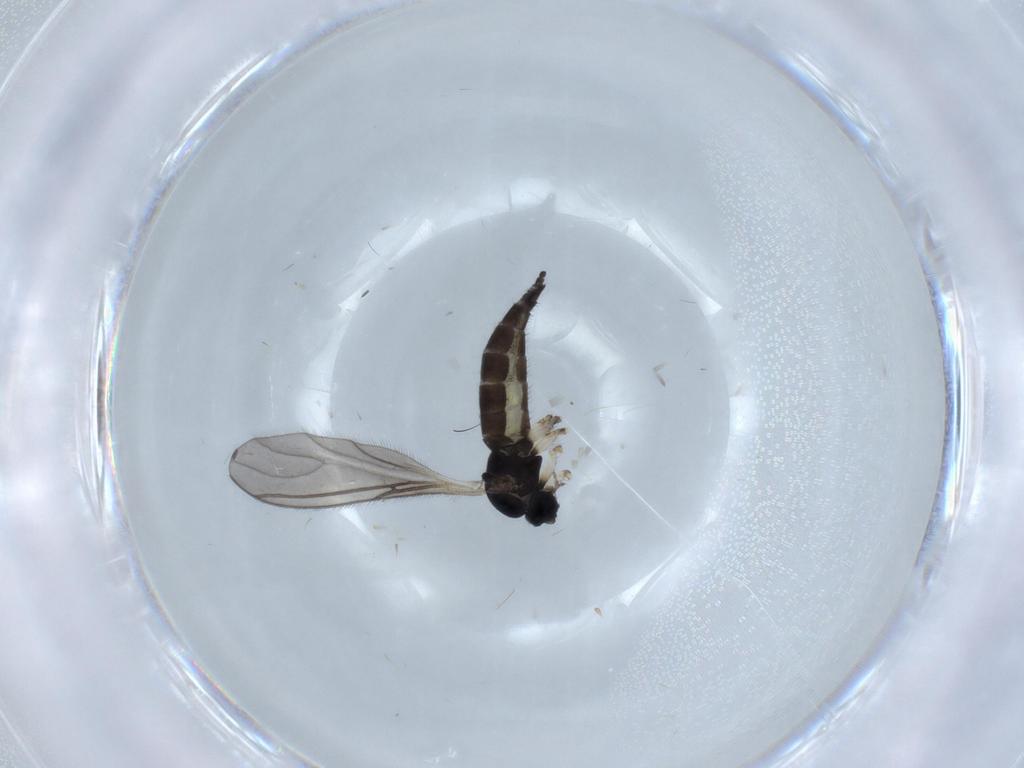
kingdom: Animalia
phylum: Arthropoda
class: Insecta
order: Diptera
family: Sciaridae
